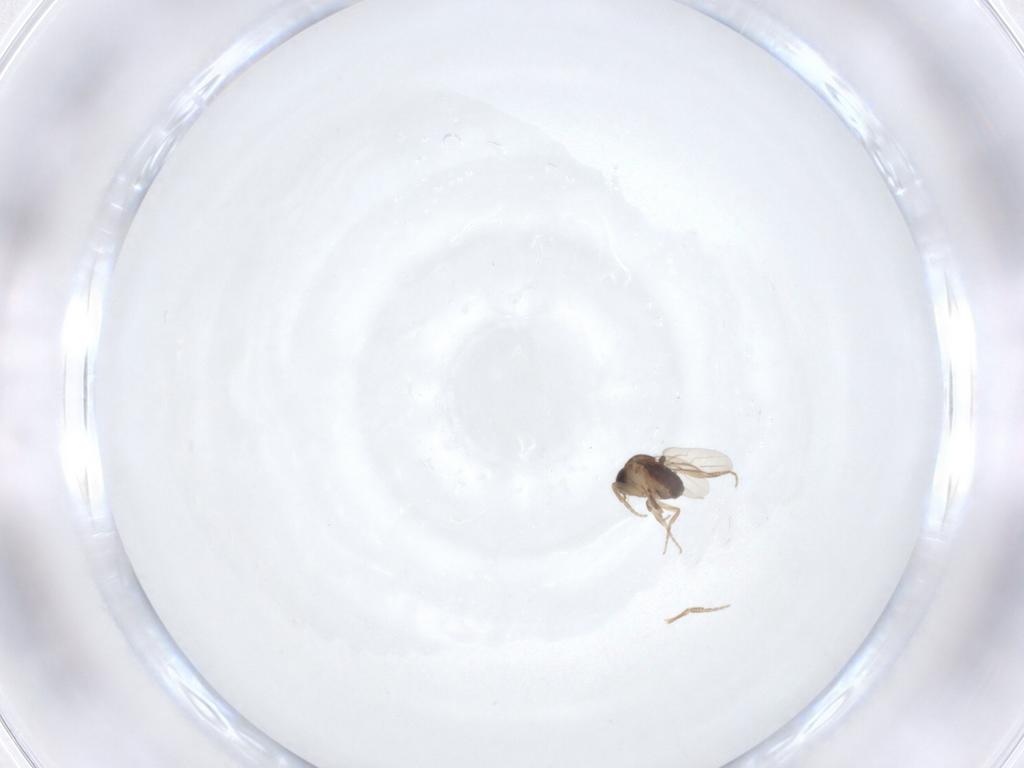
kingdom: Animalia
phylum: Arthropoda
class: Insecta
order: Diptera
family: Phoridae
